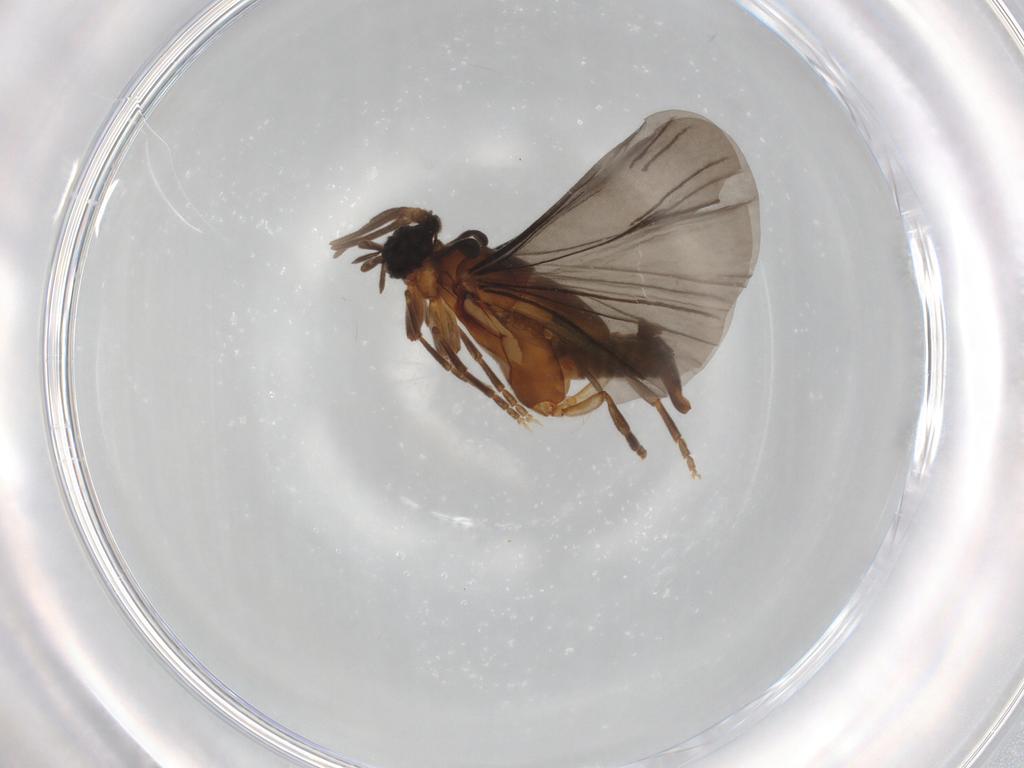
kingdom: Animalia
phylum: Arthropoda
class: Insecta
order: Strepsiptera
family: Corioxenidae
